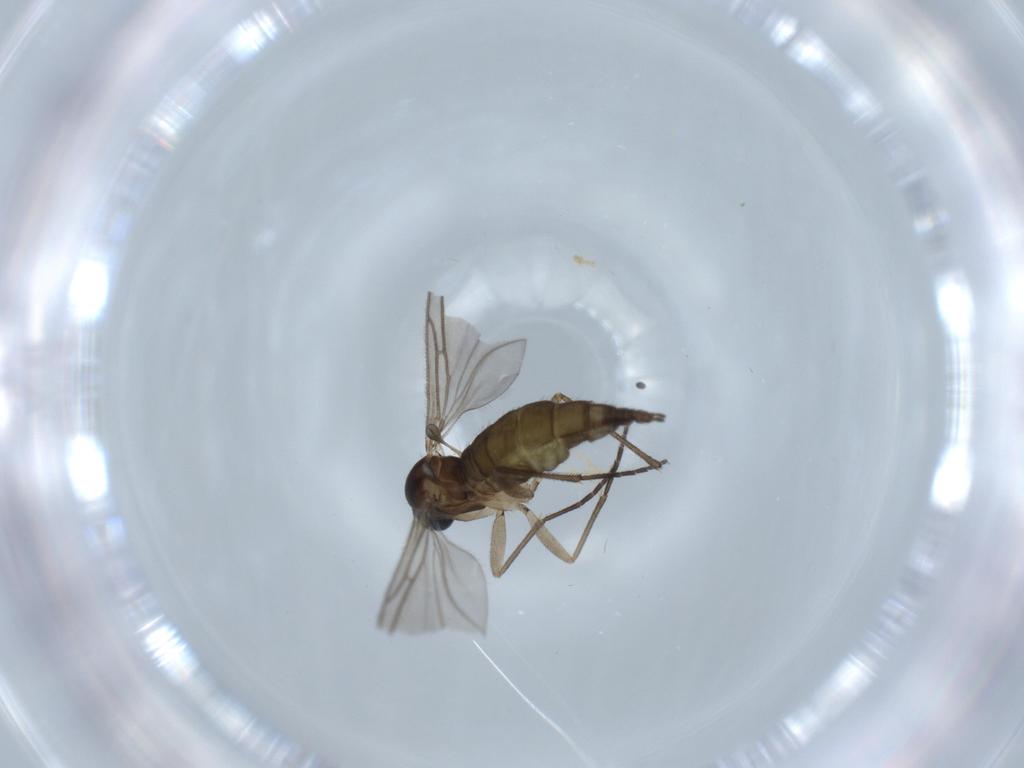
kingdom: Animalia
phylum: Arthropoda
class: Insecta
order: Diptera
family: Sciaridae
